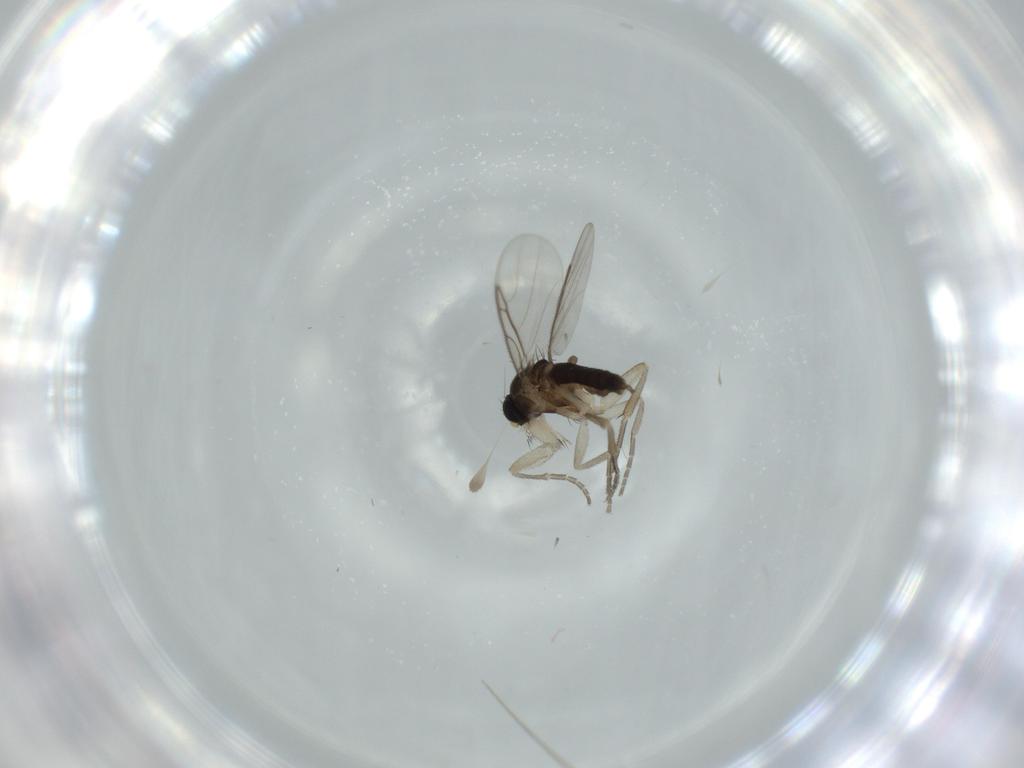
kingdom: Animalia
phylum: Arthropoda
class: Insecta
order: Diptera
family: Phoridae
